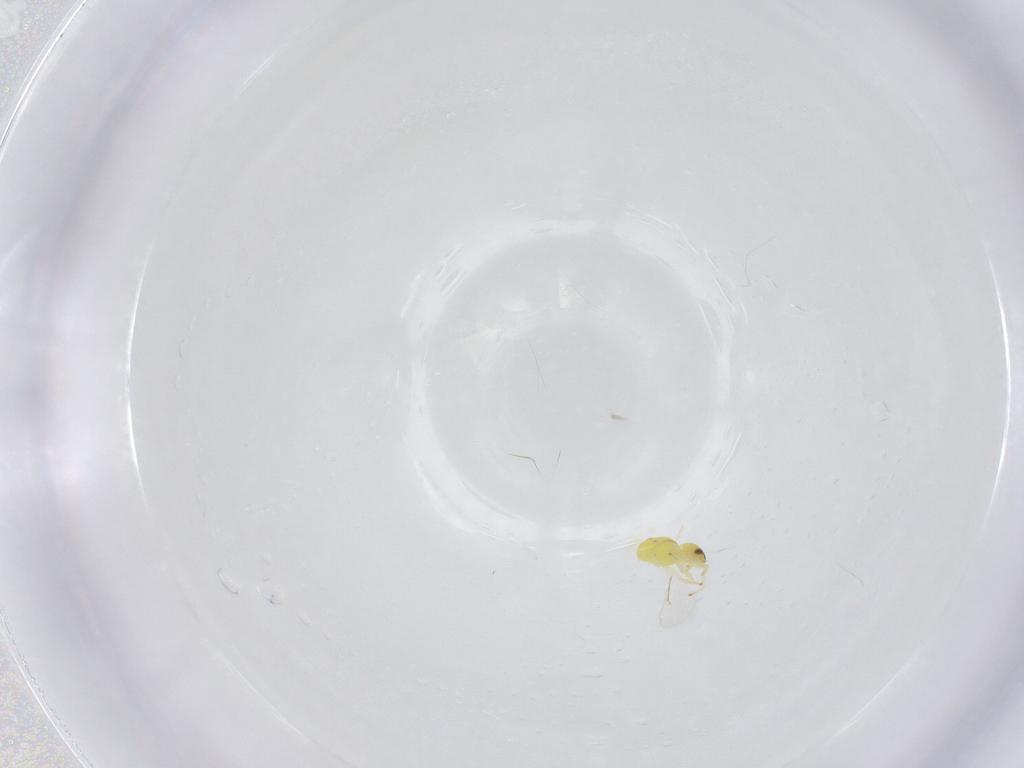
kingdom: Animalia
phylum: Arthropoda
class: Insecta
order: Hymenoptera
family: Eulophidae
